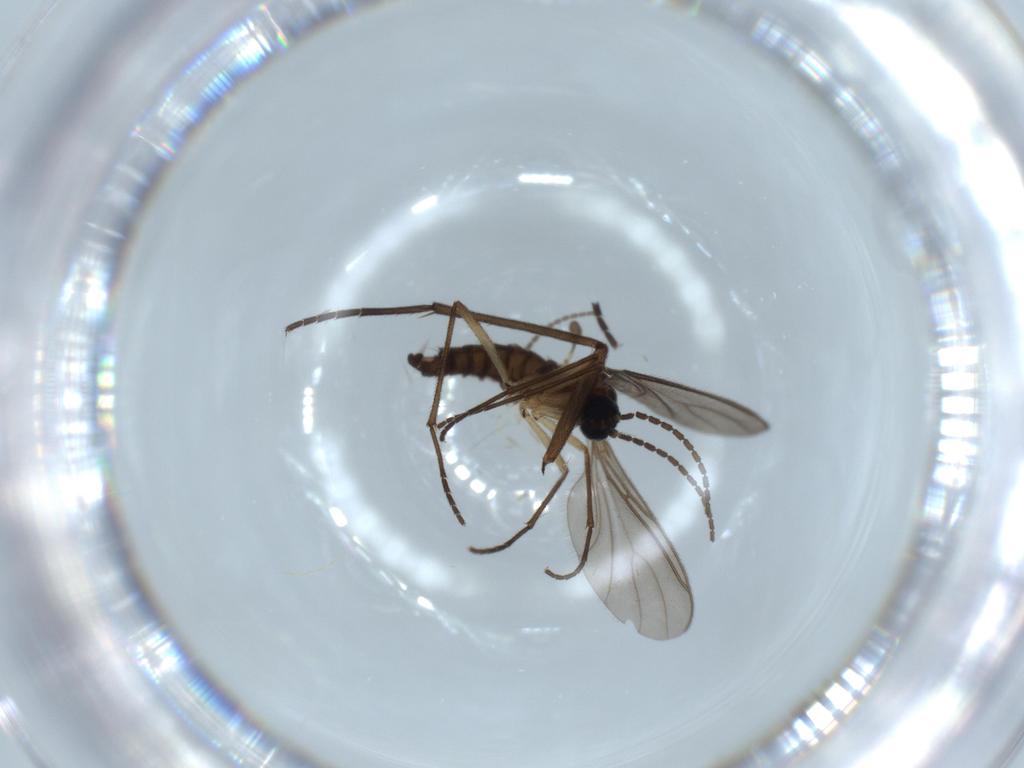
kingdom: Animalia
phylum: Arthropoda
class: Insecta
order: Diptera
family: Sciaridae
